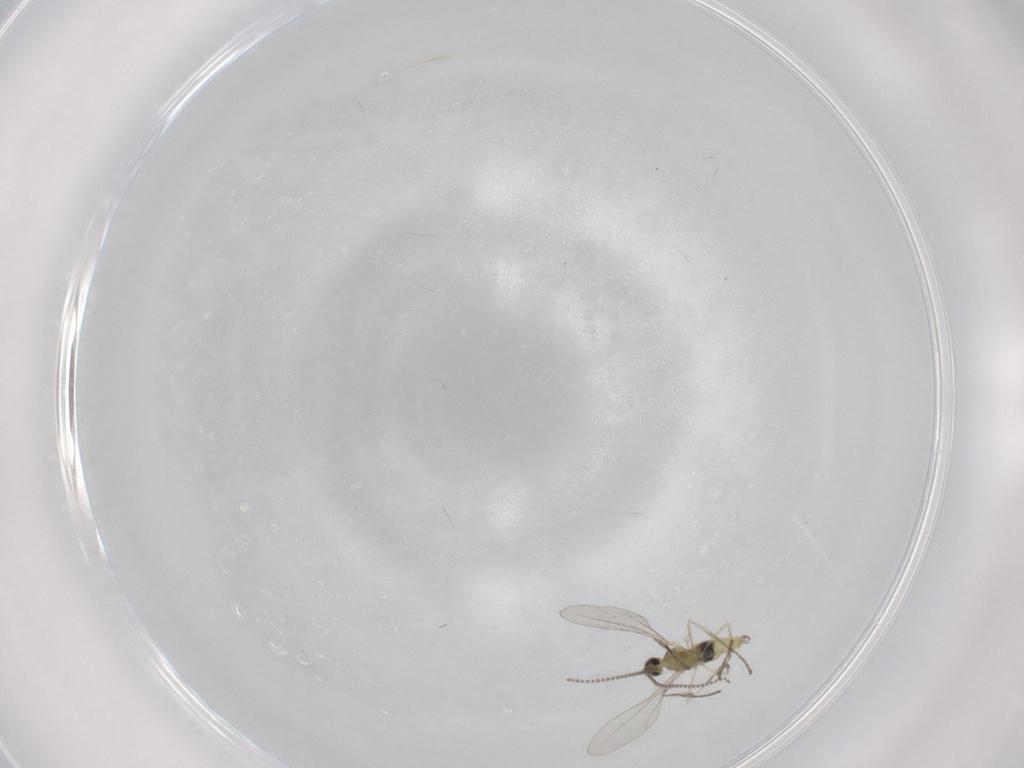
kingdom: Animalia
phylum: Arthropoda
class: Insecta
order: Diptera
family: Cecidomyiidae
